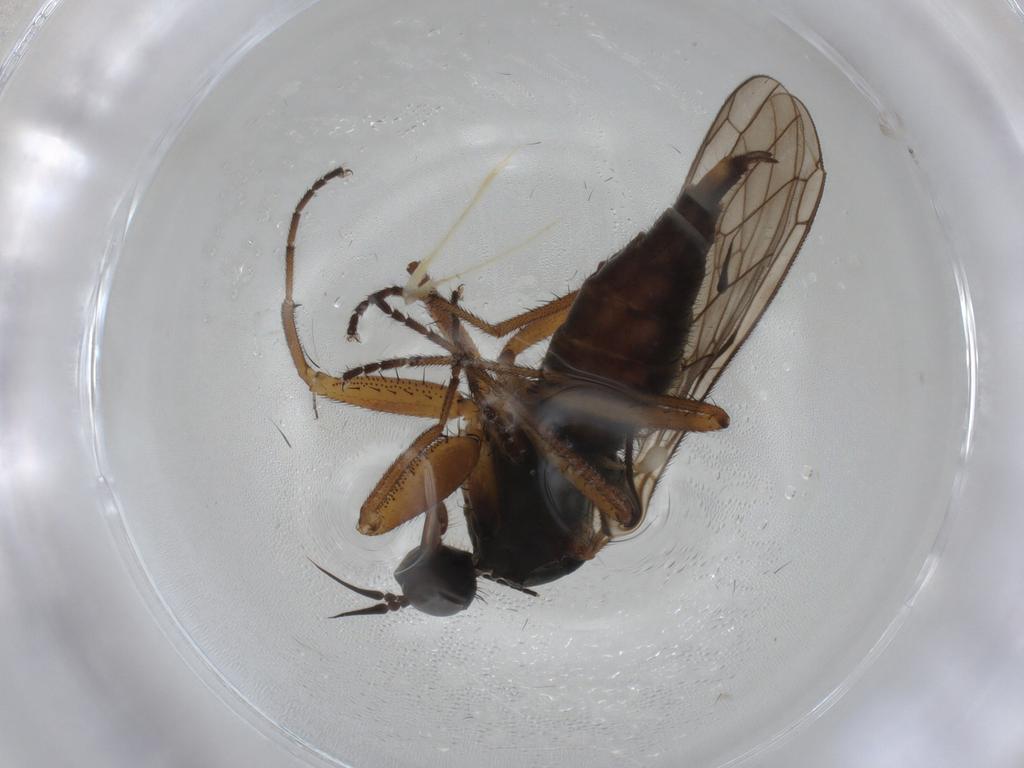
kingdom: Animalia
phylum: Arthropoda
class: Insecta
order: Diptera
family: Sciaridae
